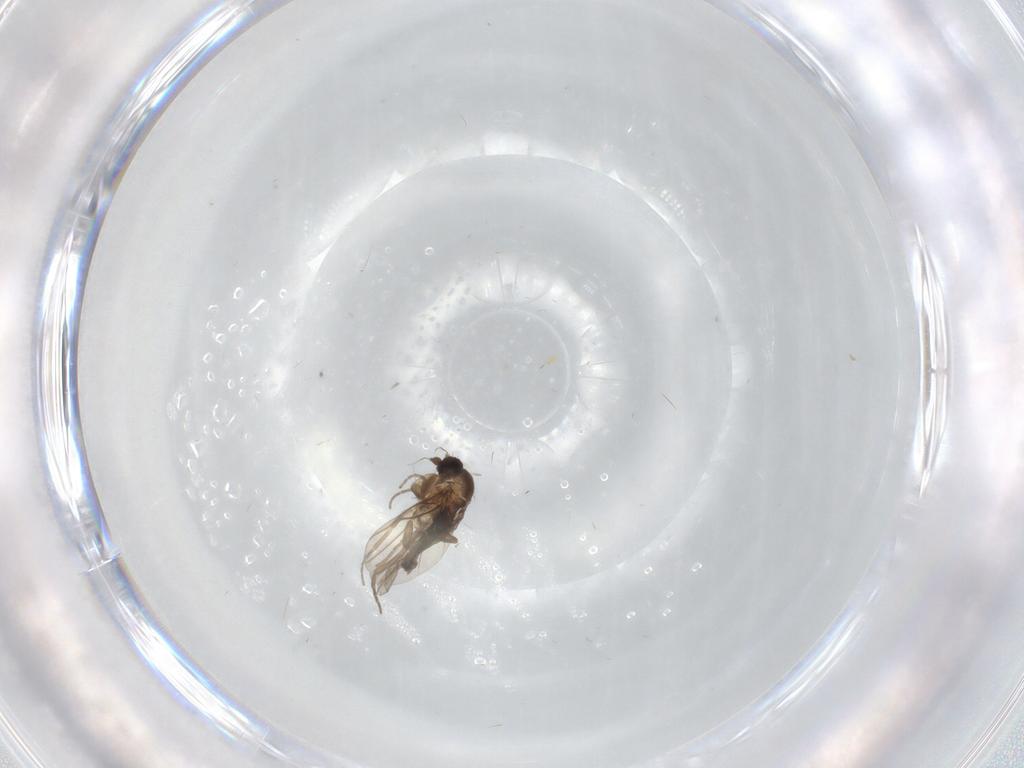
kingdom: Animalia
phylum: Arthropoda
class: Insecta
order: Diptera
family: Phoridae
